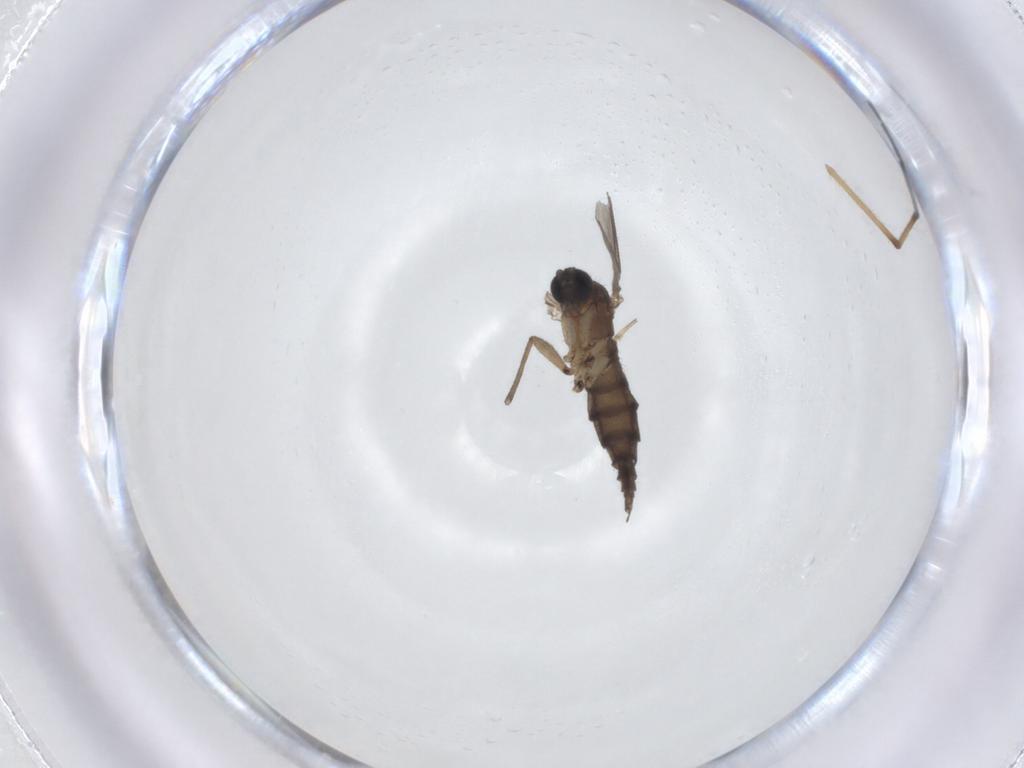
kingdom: Animalia
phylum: Arthropoda
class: Insecta
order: Diptera
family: Sciaridae
